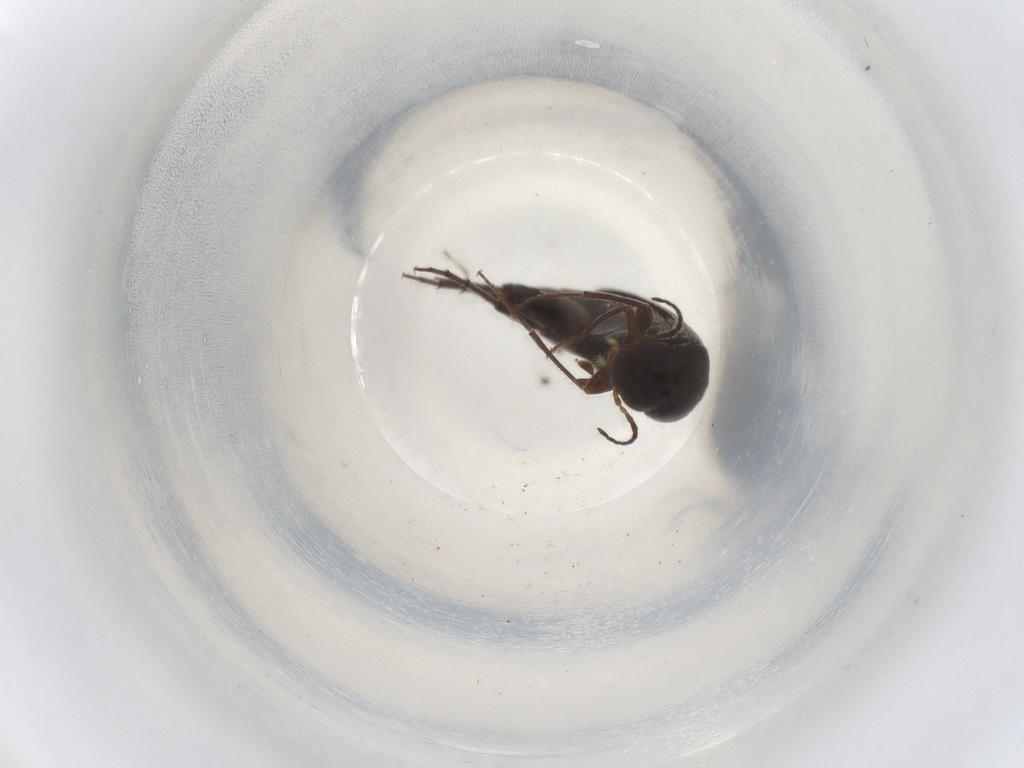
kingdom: Animalia
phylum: Arthropoda
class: Insecta
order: Coleoptera
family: Mordellidae
